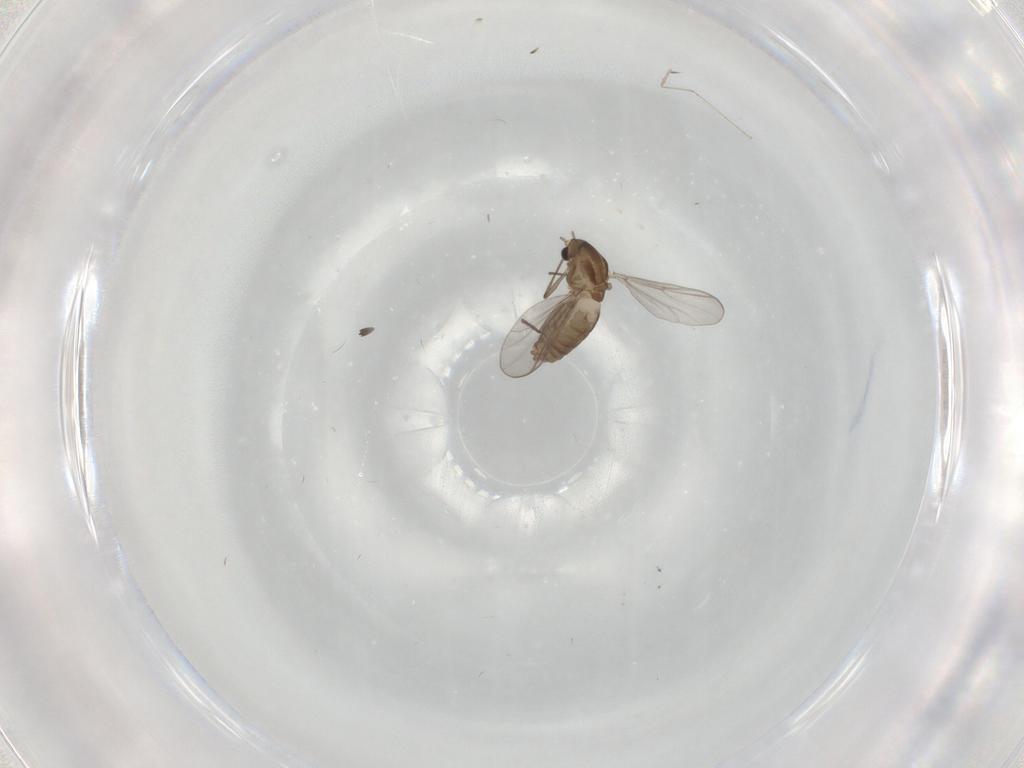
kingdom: Animalia
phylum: Arthropoda
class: Insecta
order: Diptera
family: Chironomidae
